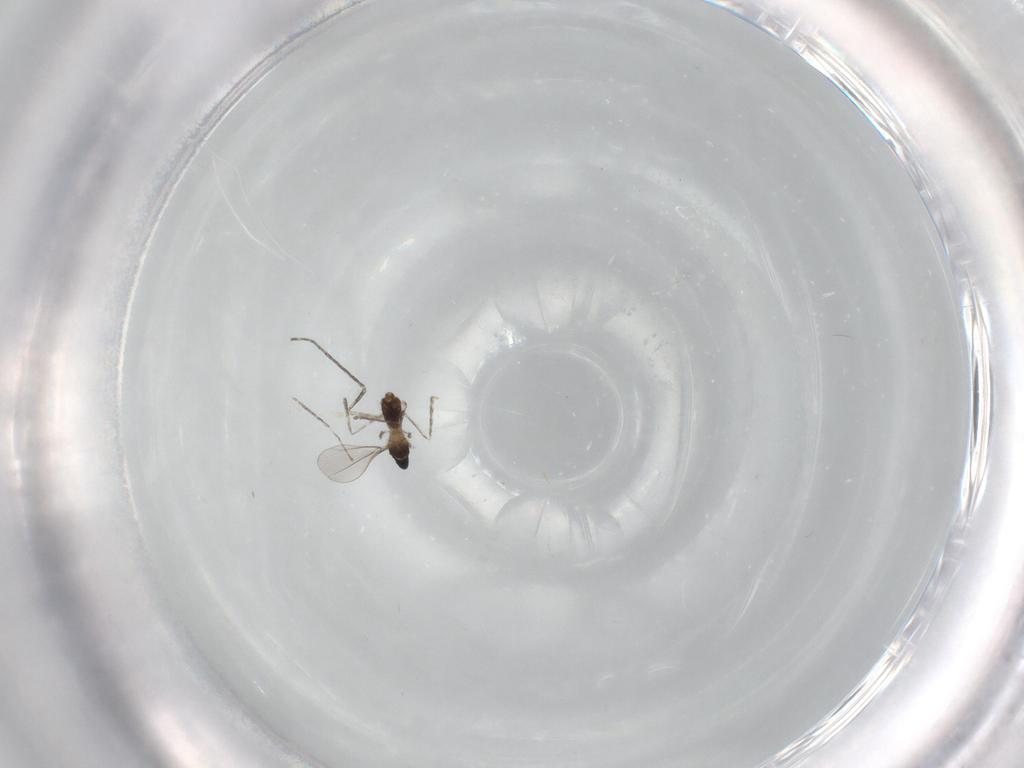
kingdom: Animalia
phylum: Arthropoda
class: Insecta
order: Diptera
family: Cecidomyiidae
